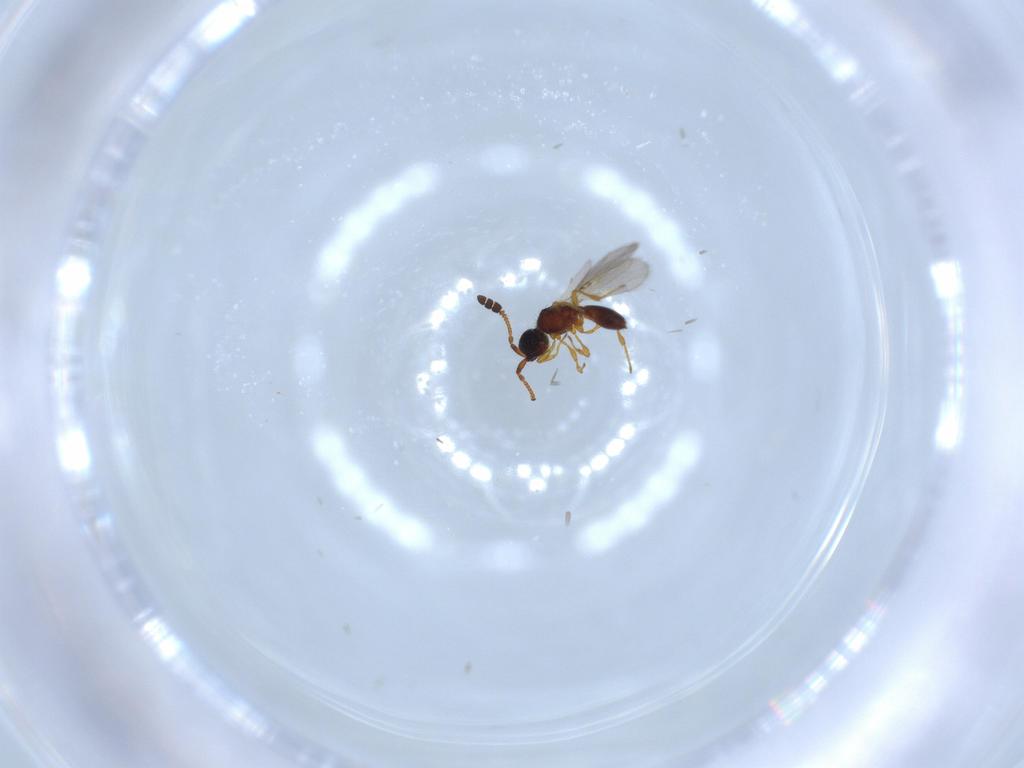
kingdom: Animalia
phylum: Arthropoda
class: Insecta
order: Hymenoptera
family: Diapriidae
